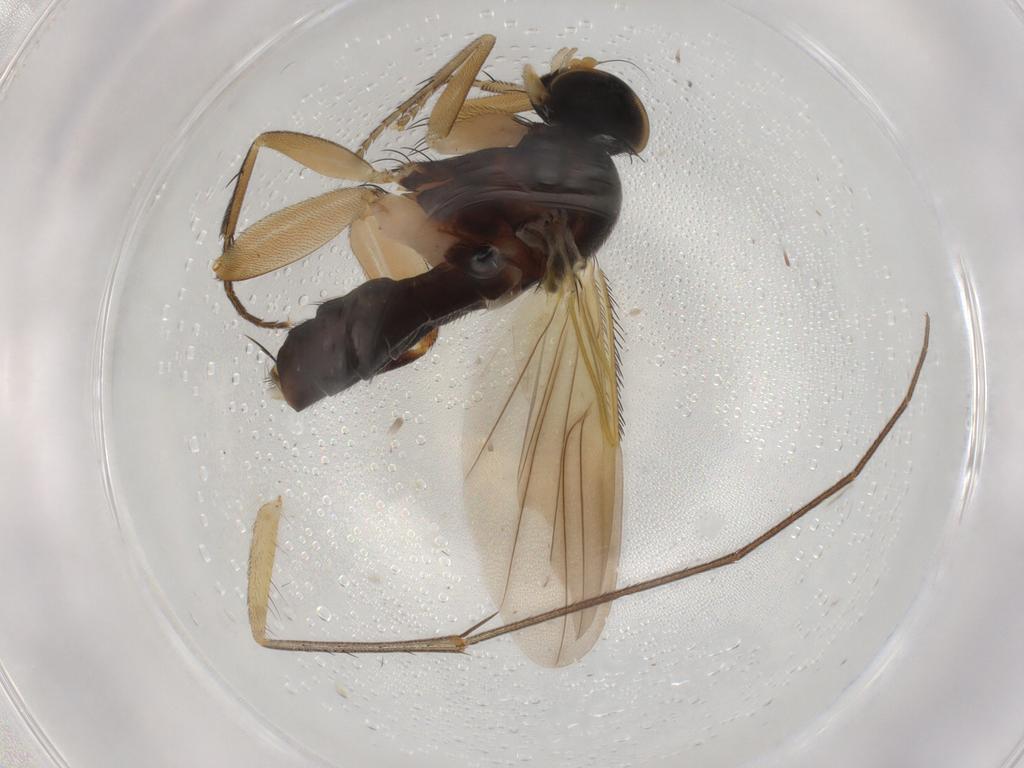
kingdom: Animalia
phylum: Arthropoda
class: Insecta
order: Diptera
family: Phoridae
